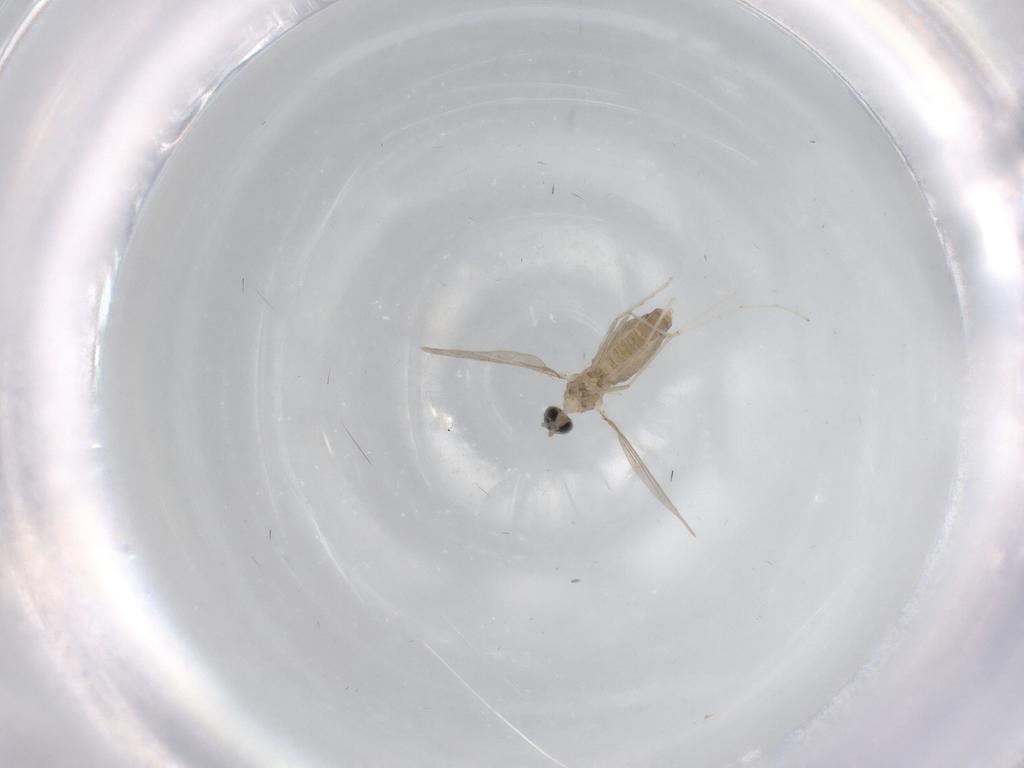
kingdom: Animalia
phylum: Arthropoda
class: Insecta
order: Diptera
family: Cecidomyiidae
